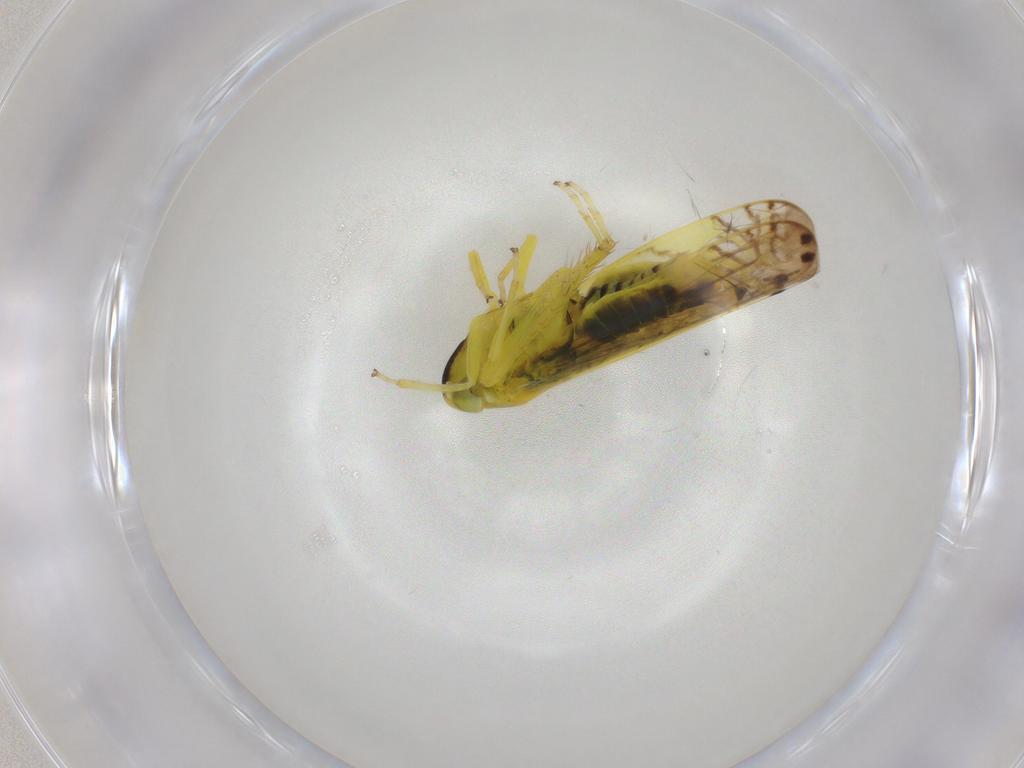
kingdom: Animalia
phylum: Arthropoda
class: Insecta
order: Hemiptera
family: Cicadellidae
